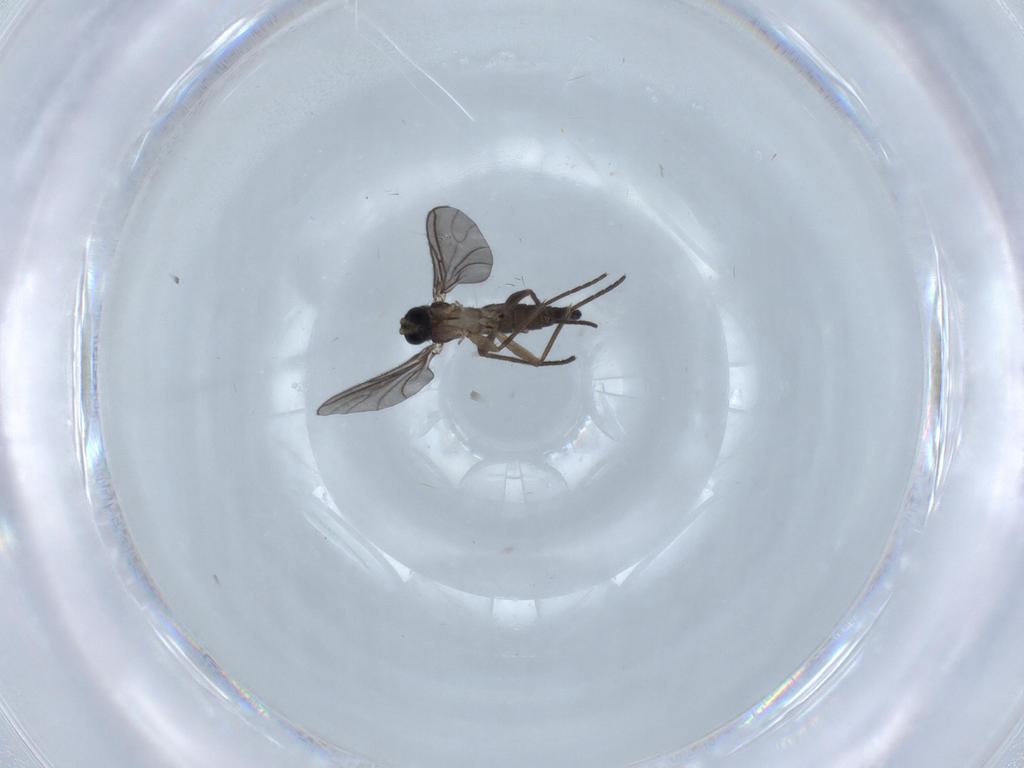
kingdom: Animalia
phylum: Arthropoda
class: Insecta
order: Diptera
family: Sciaridae
